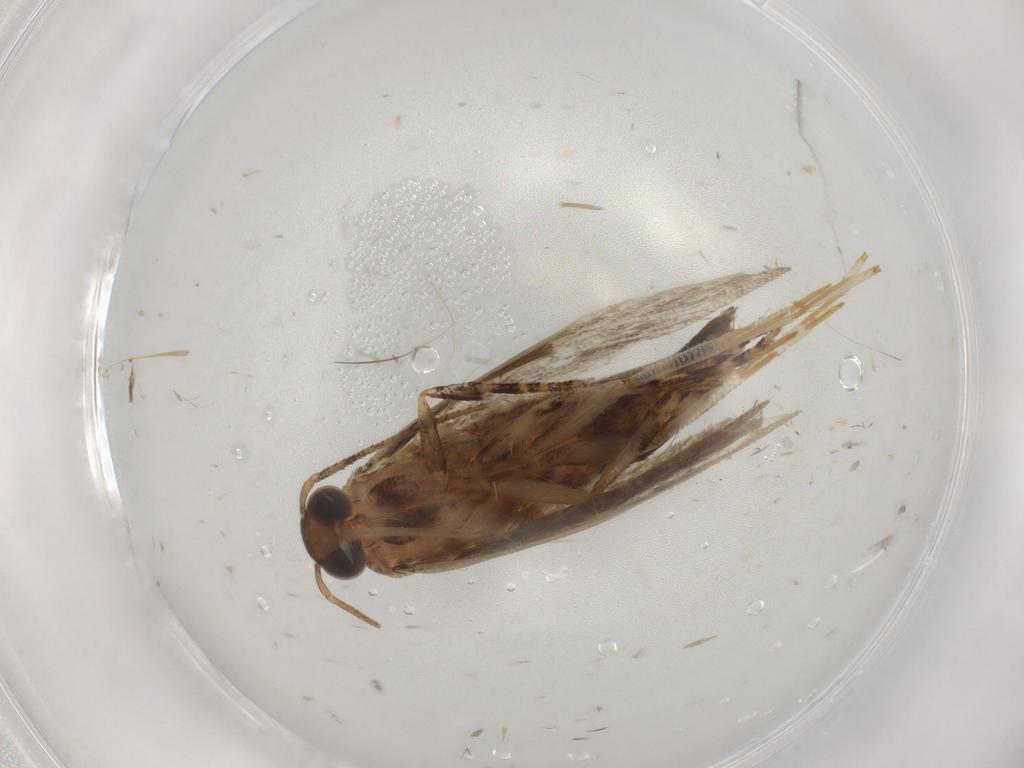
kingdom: Animalia
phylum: Arthropoda
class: Insecta
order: Lepidoptera
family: Gelechiidae
